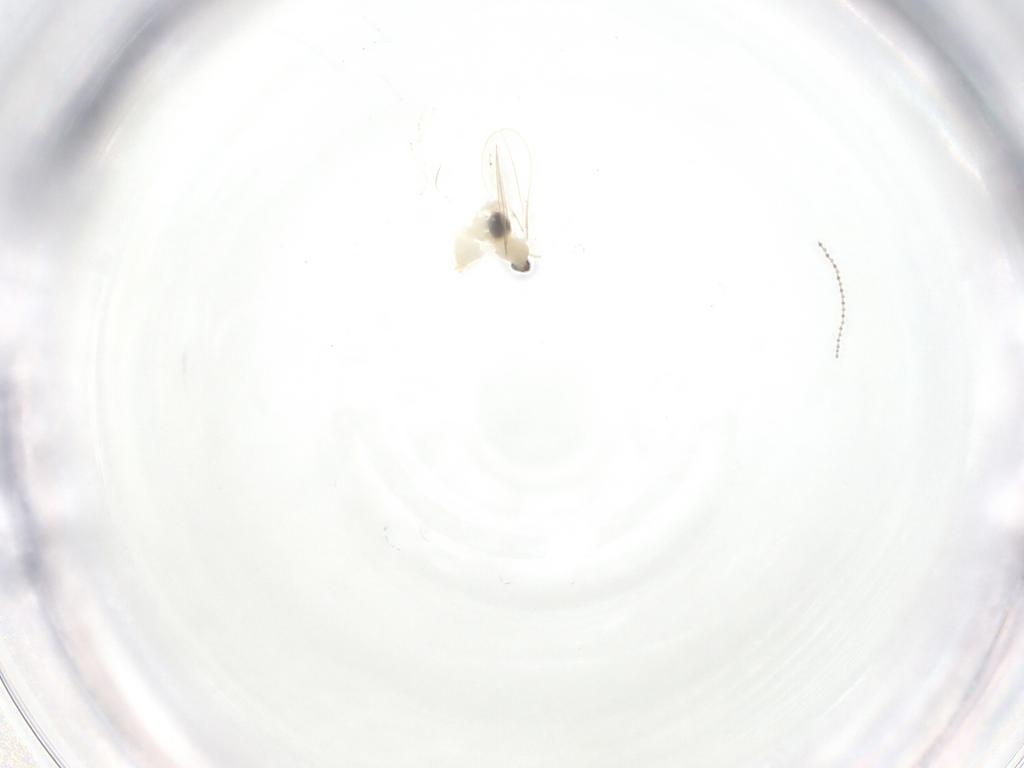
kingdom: Animalia
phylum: Arthropoda
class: Insecta
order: Diptera
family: Cecidomyiidae
